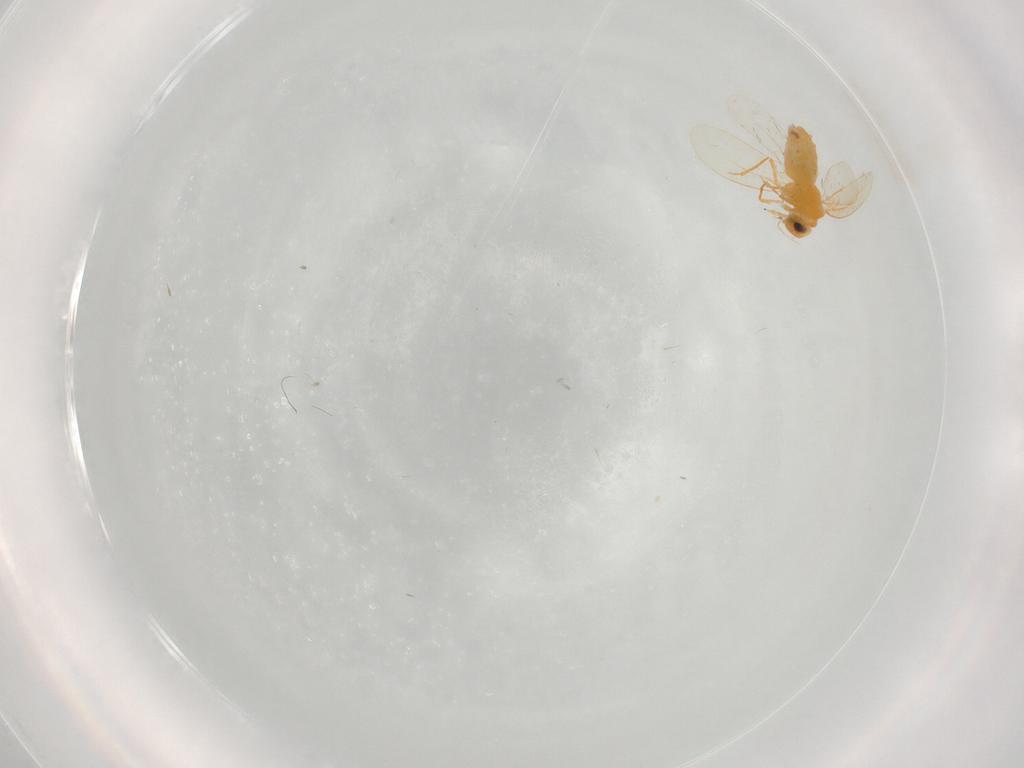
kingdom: Animalia
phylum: Arthropoda
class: Insecta
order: Hemiptera
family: Aleyrodidae
